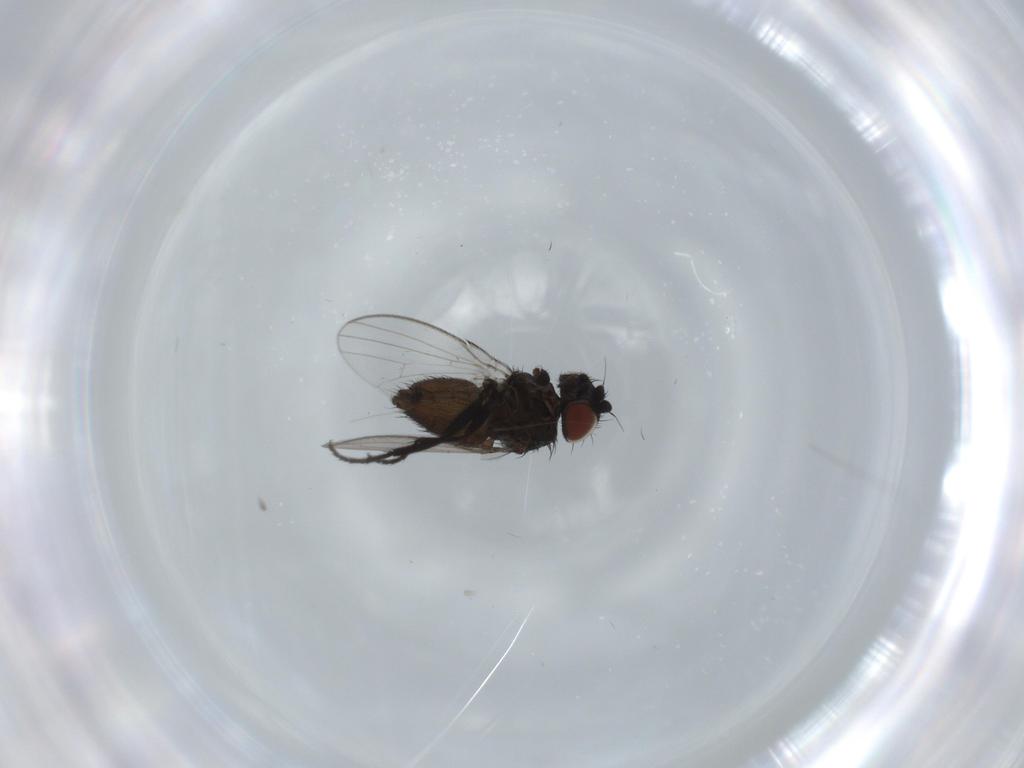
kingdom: Animalia
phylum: Arthropoda
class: Insecta
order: Diptera
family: Milichiidae
